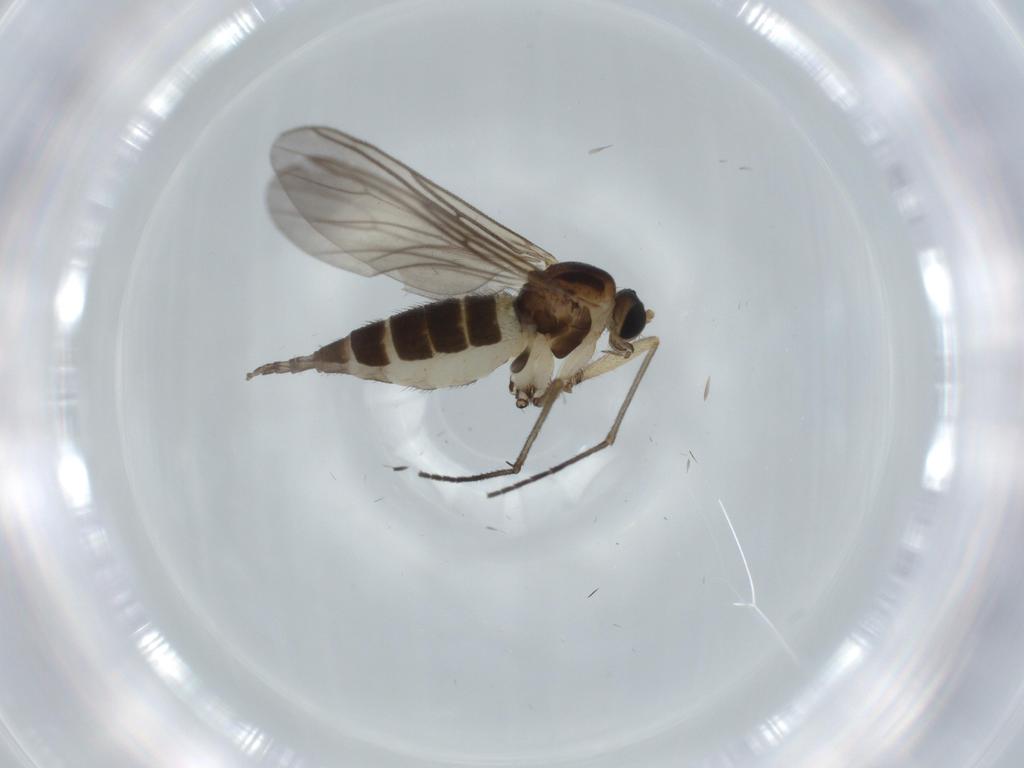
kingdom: Animalia
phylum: Arthropoda
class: Insecta
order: Diptera
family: Sciaridae
